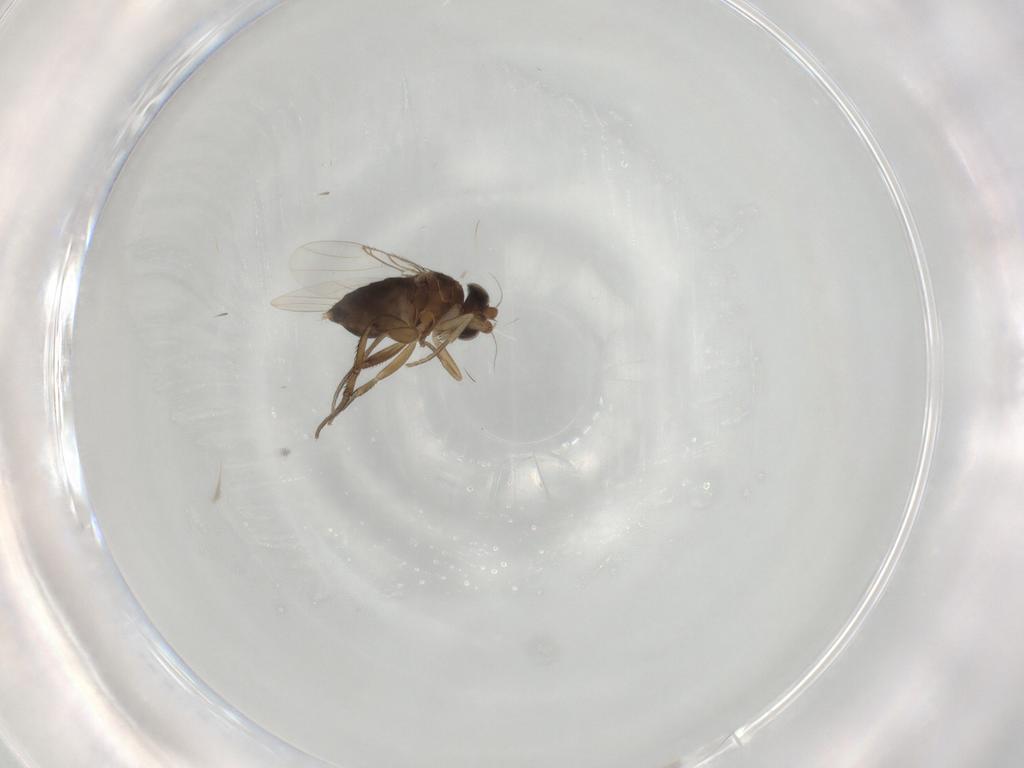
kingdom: Animalia
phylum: Arthropoda
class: Insecta
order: Diptera
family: Phoridae
